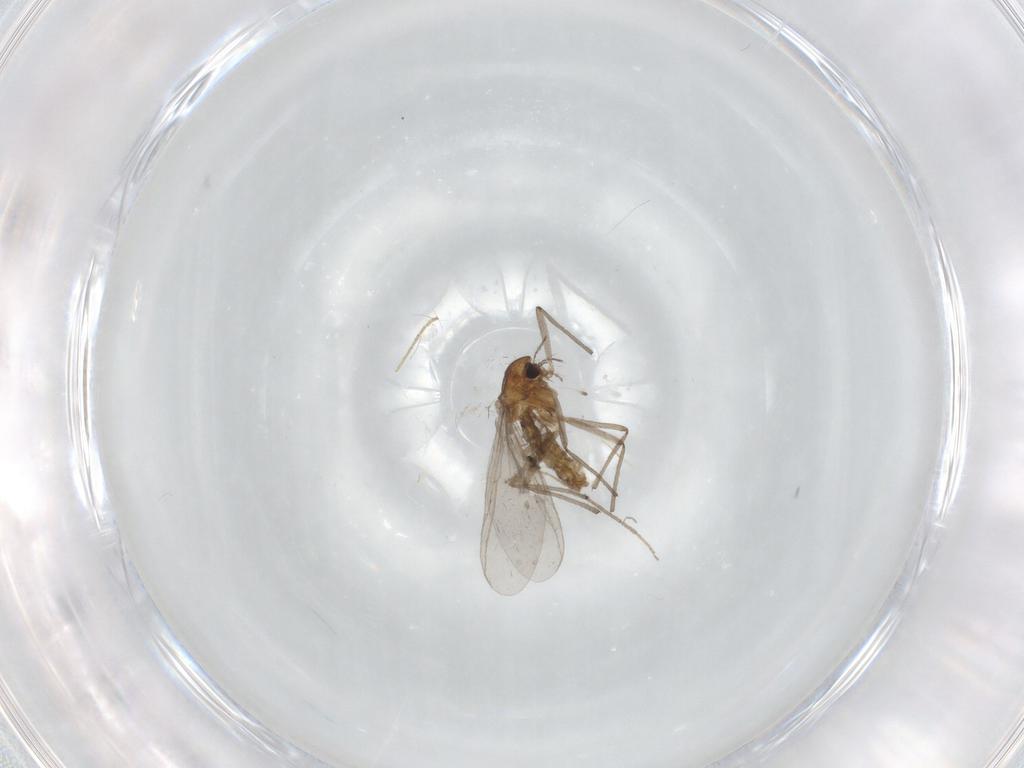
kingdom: Animalia
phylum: Arthropoda
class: Insecta
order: Diptera
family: Chironomidae
